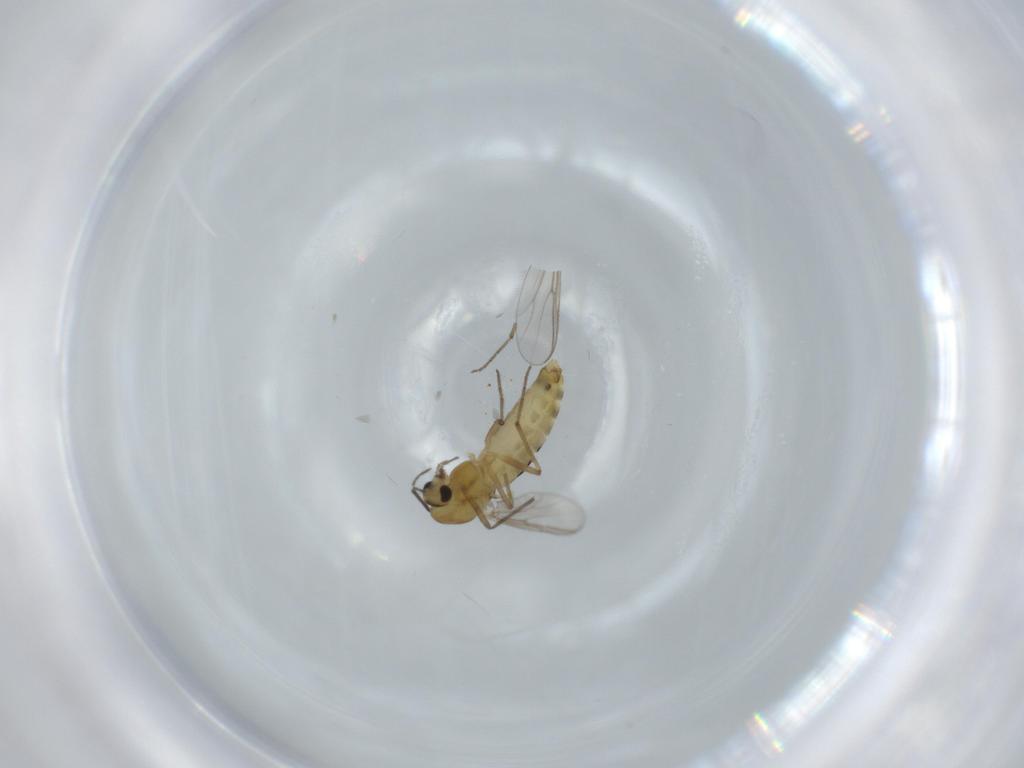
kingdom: Animalia
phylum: Arthropoda
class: Insecta
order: Diptera
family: Chironomidae
